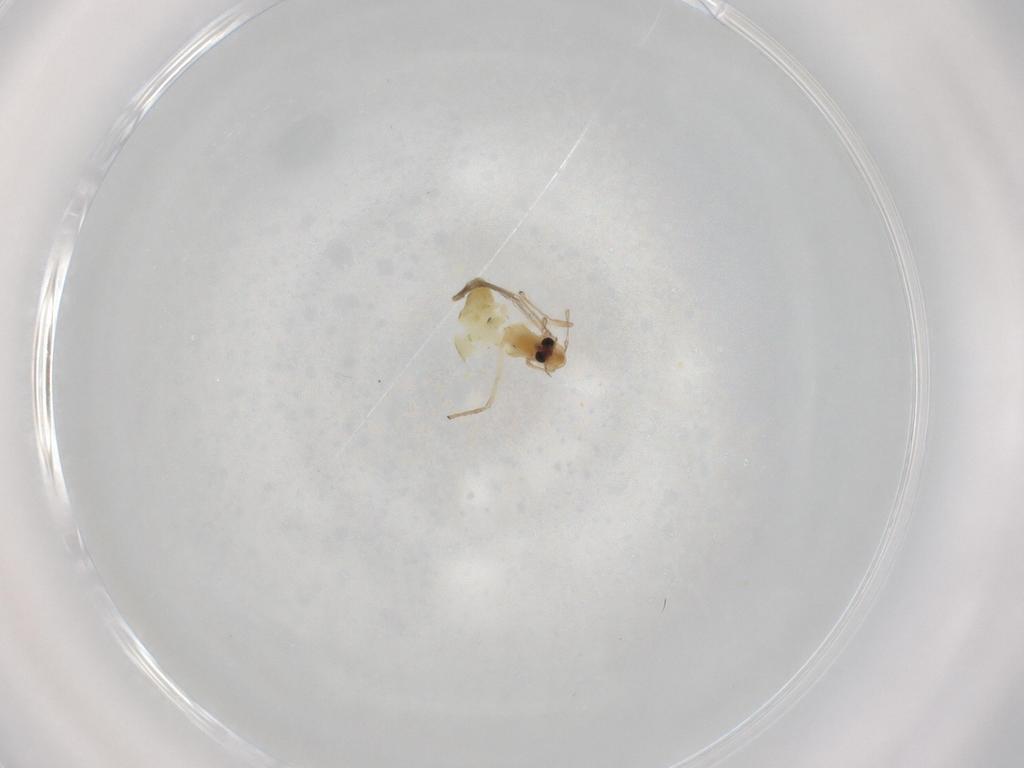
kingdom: Animalia
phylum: Arthropoda
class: Insecta
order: Diptera
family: Chironomidae
